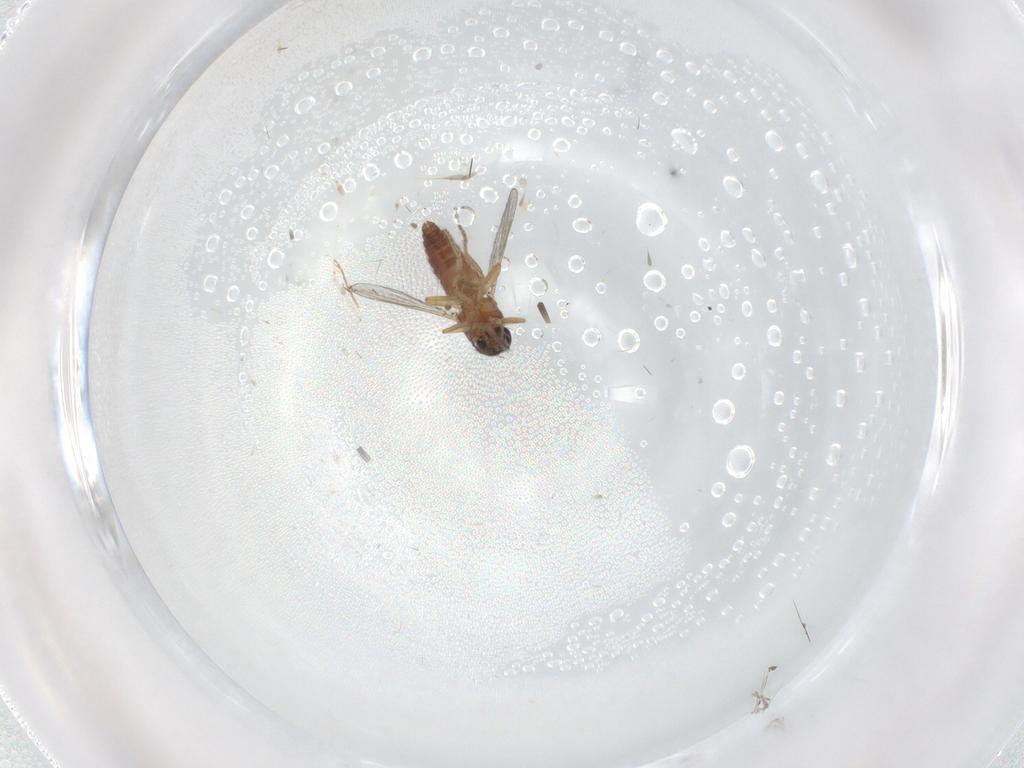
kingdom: Animalia
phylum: Arthropoda
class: Insecta
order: Diptera
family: Ceratopogonidae
